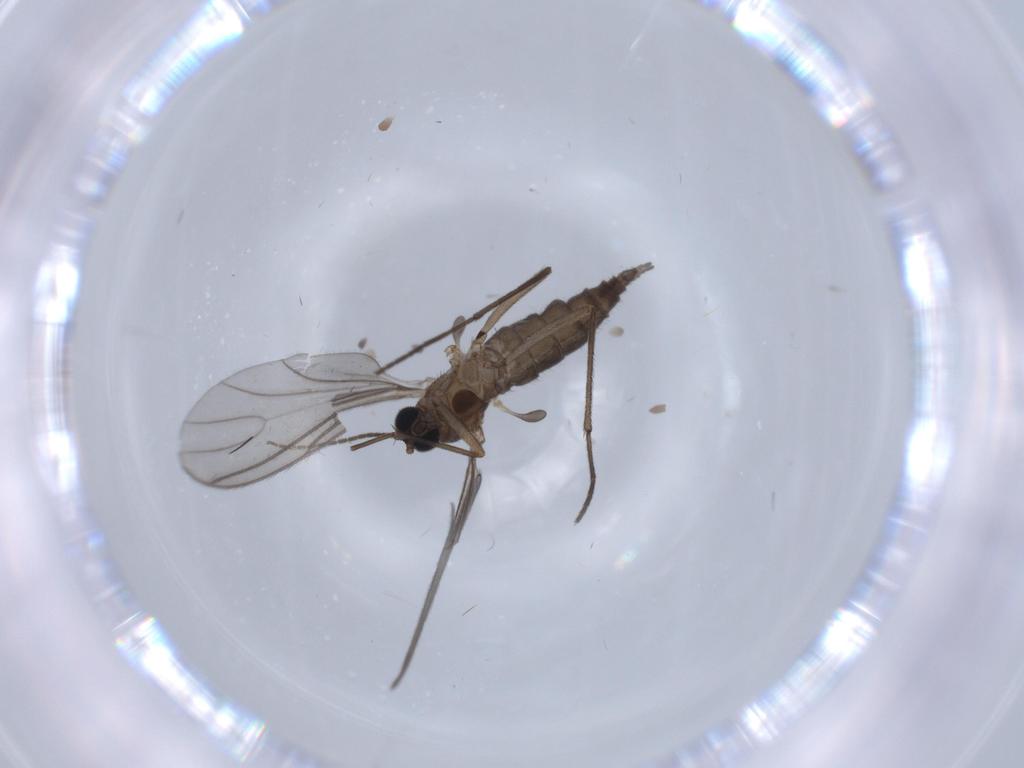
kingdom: Animalia
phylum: Arthropoda
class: Insecta
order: Diptera
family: Sciaridae
